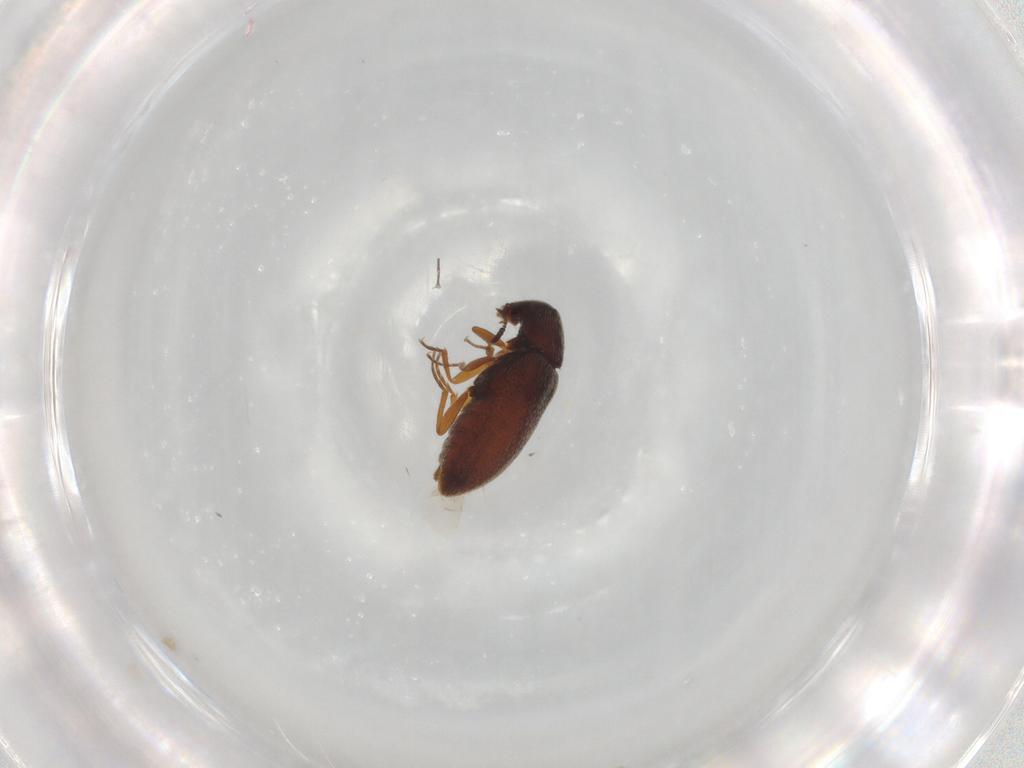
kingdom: Animalia
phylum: Arthropoda
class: Insecta
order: Coleoptera
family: Rhadalidae
